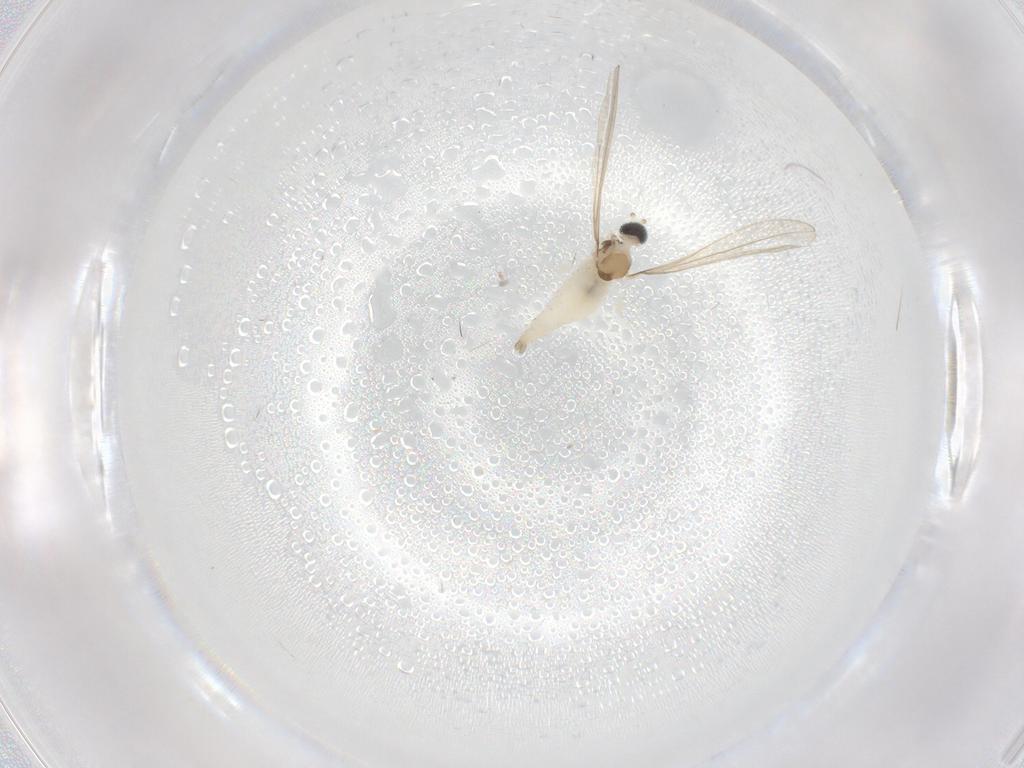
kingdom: Animalia
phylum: Arthropoda
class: Insecta
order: Diptera
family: Cecidomyiidae
